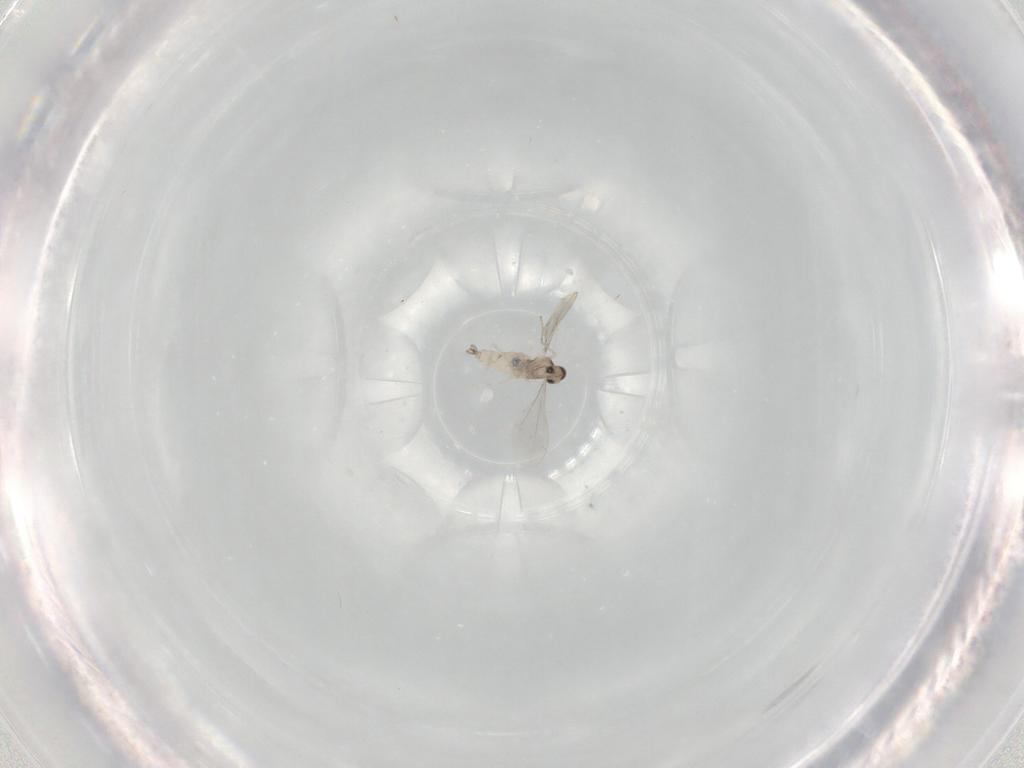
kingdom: Animalia
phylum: Arthropoda
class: Insecta
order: Diptera
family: Cecidomyiidae
